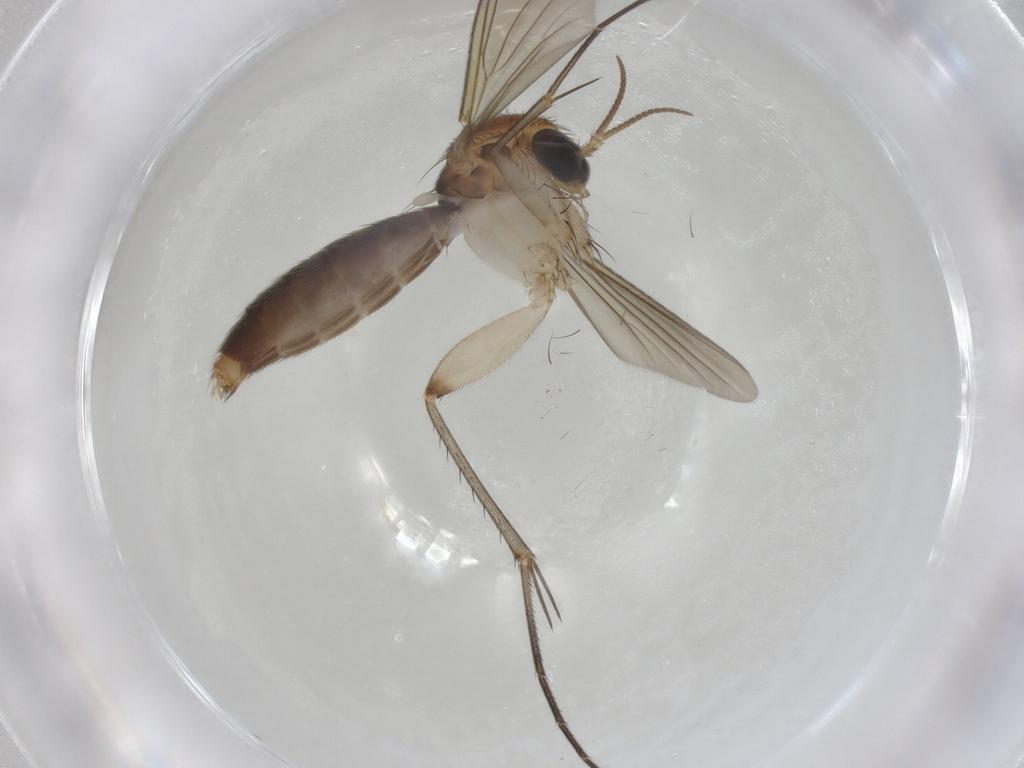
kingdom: Animalia
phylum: Arthropoda
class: Insecta
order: Diptera
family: Mycetophilidae
